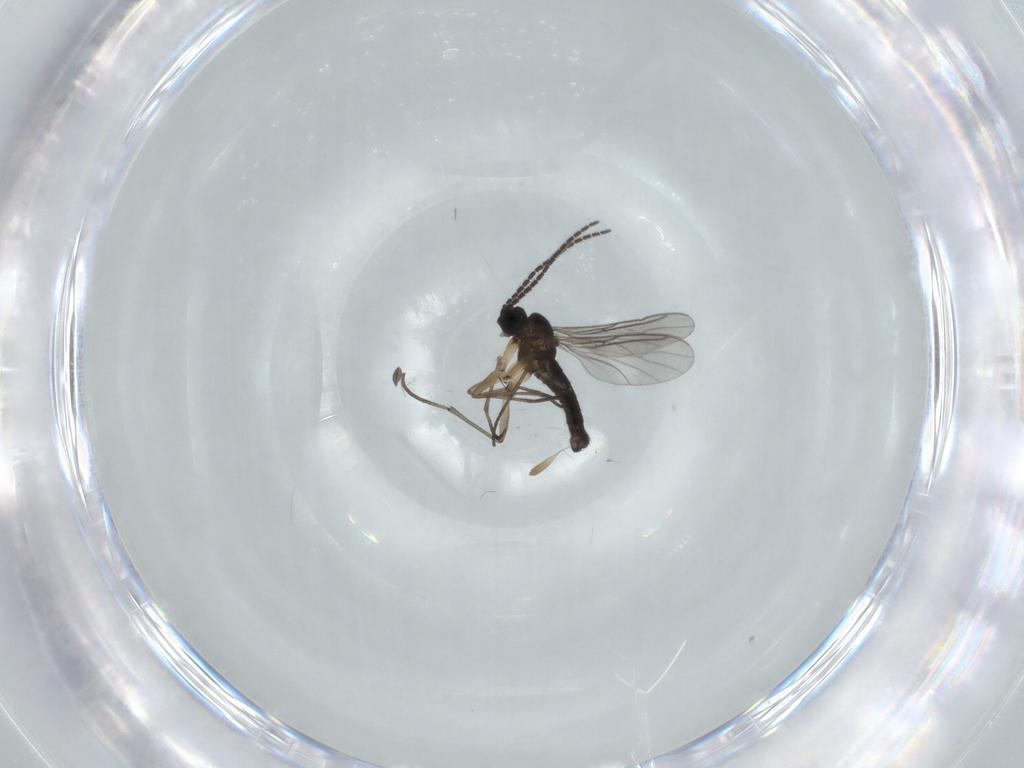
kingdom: Animalia
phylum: Arthropoda
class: Insecta
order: Diptera
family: Sciaridae
